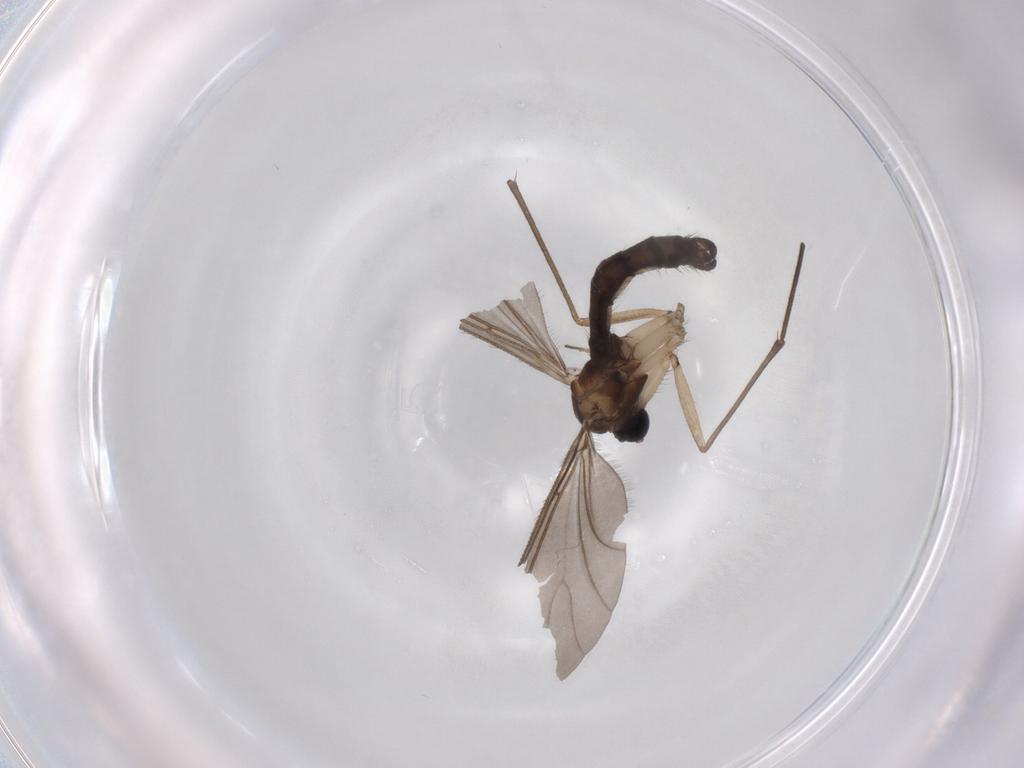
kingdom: Animalia
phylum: Arthropoda
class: Insecta
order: Diptera
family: Sciaridae
